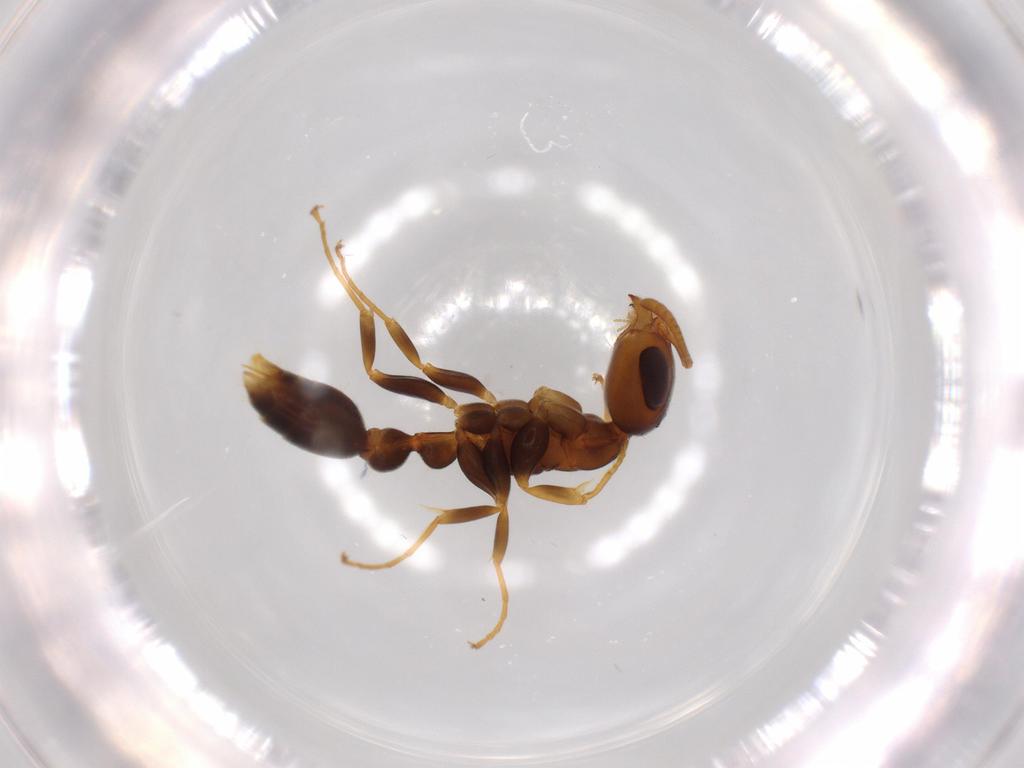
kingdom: Animalia
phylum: Arthropoda
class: Insecta
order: Hymenoptera
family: Formicidae
